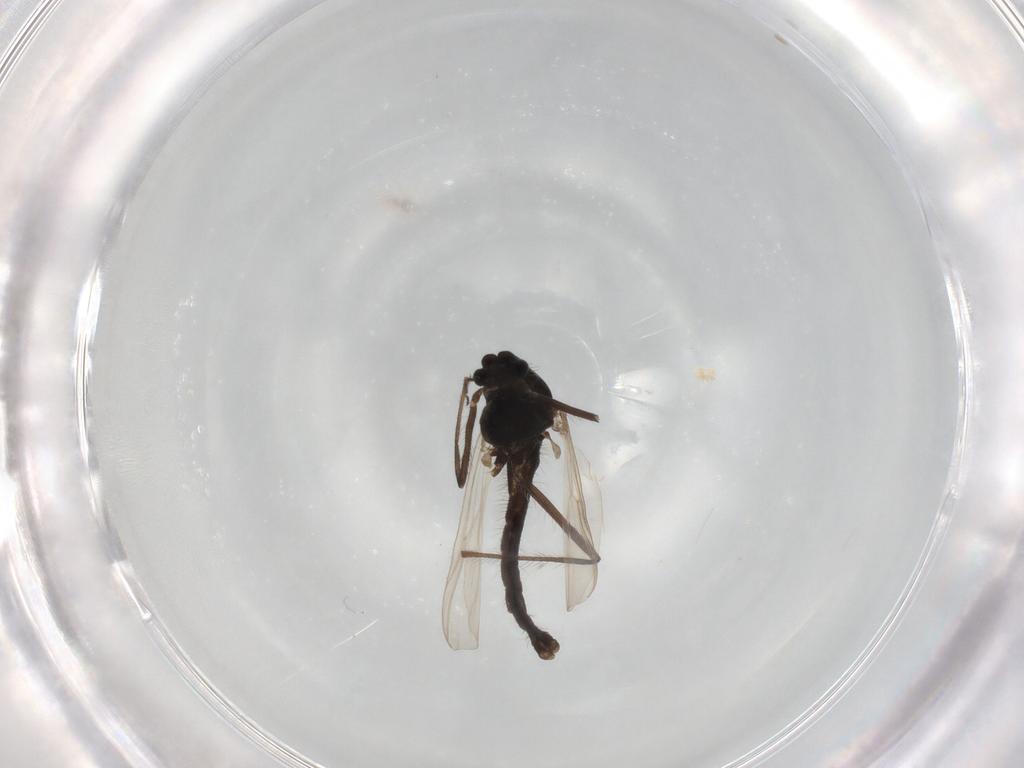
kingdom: Animalia
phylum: Arthropoda
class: Insecta
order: Diptera
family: Chironomidae
